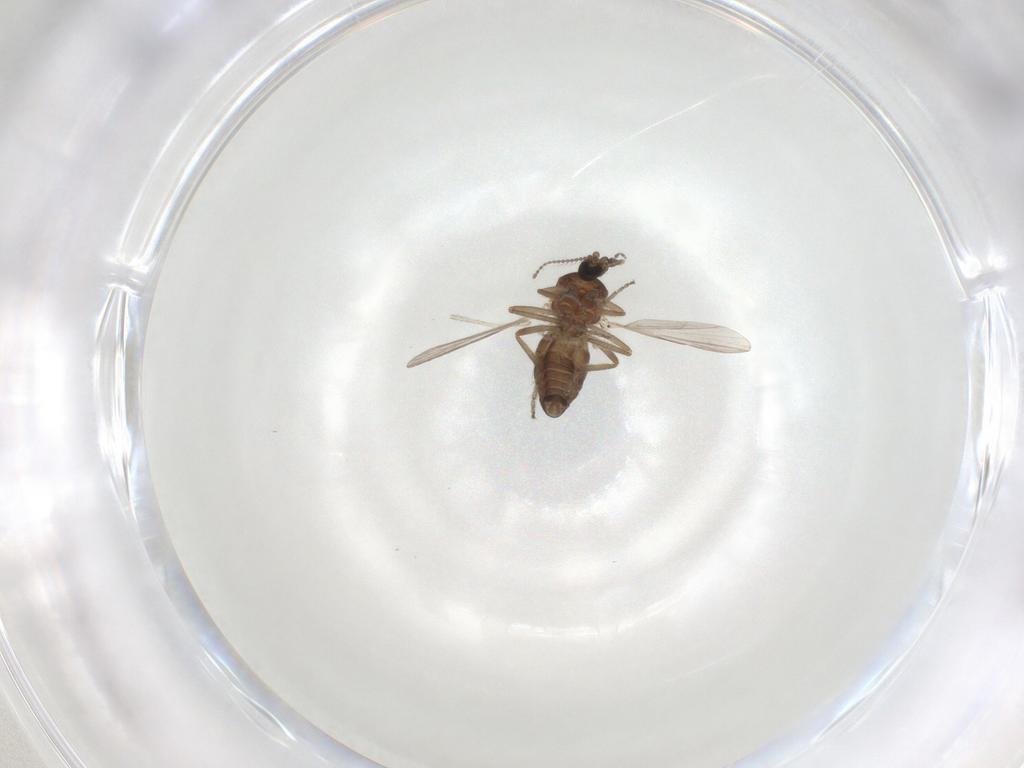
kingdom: Animalia
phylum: Arthropoda
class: Insecta
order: Diptera
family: Ceratopogonidae
